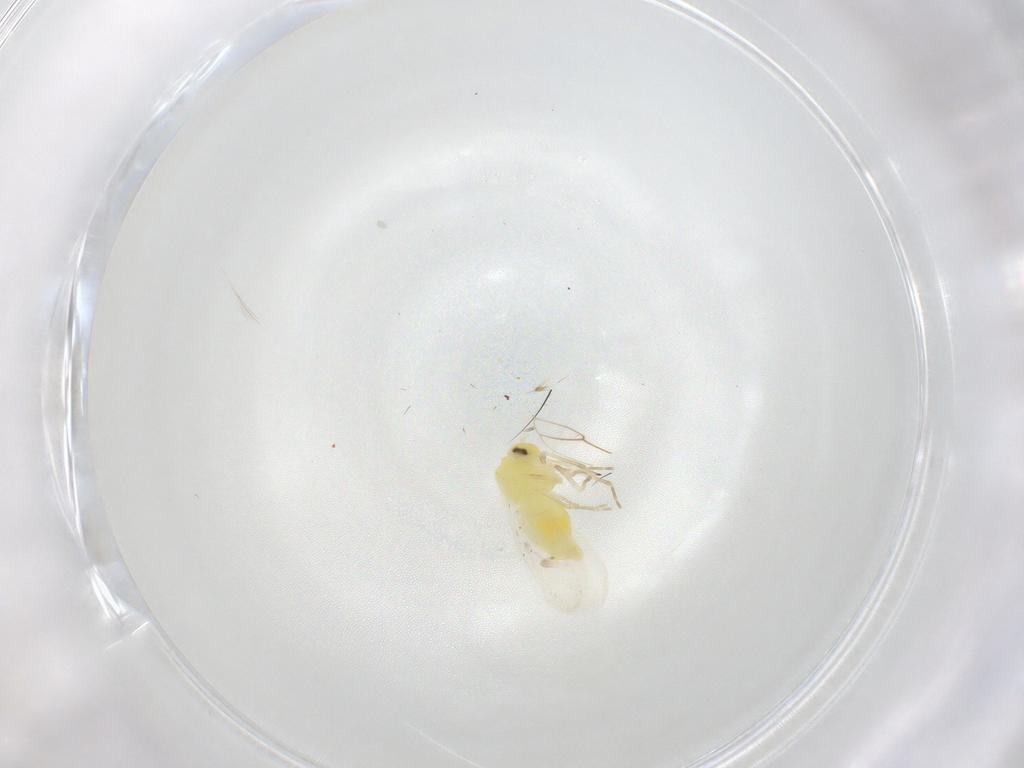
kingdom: Animalia
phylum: Arthropoda
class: Insecta
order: Hemiptera
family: Aleyrodidae
